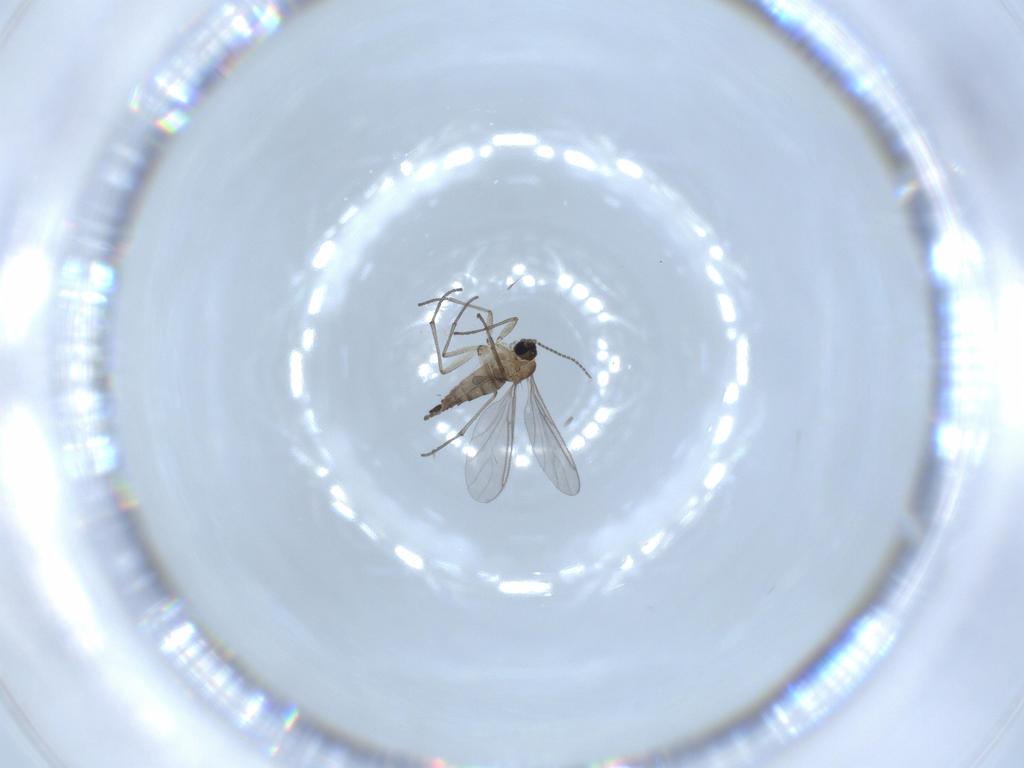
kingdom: Animalia
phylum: Arthropoda
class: Insecta
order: Diptera
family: Sciaridae
